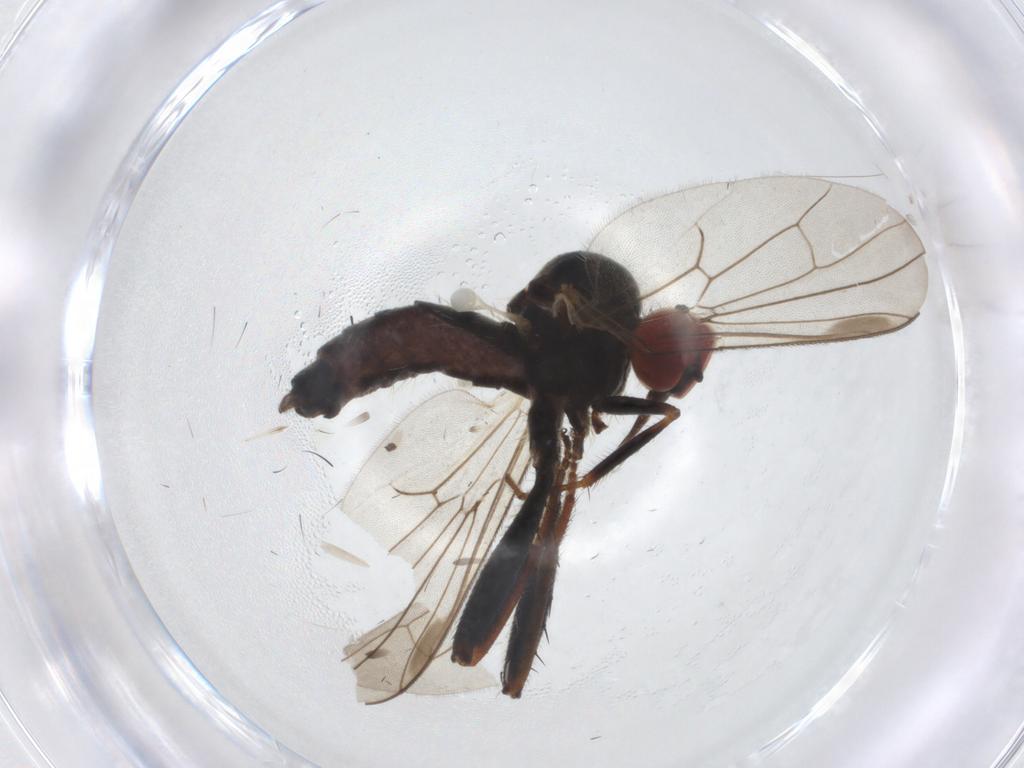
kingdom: Animalia
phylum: Arthropoda
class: Insecta
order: Diptera
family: Hybotidae
